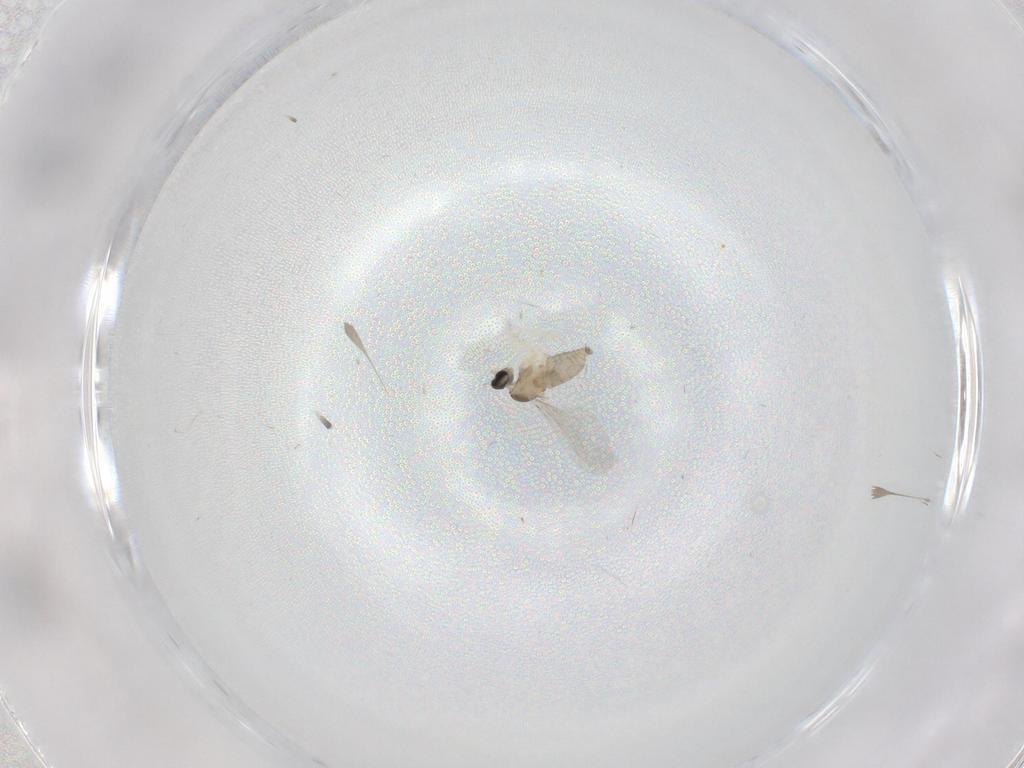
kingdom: Animalia
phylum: Arthropoda
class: Insecta
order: Diptera
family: Cecidomyiidae
